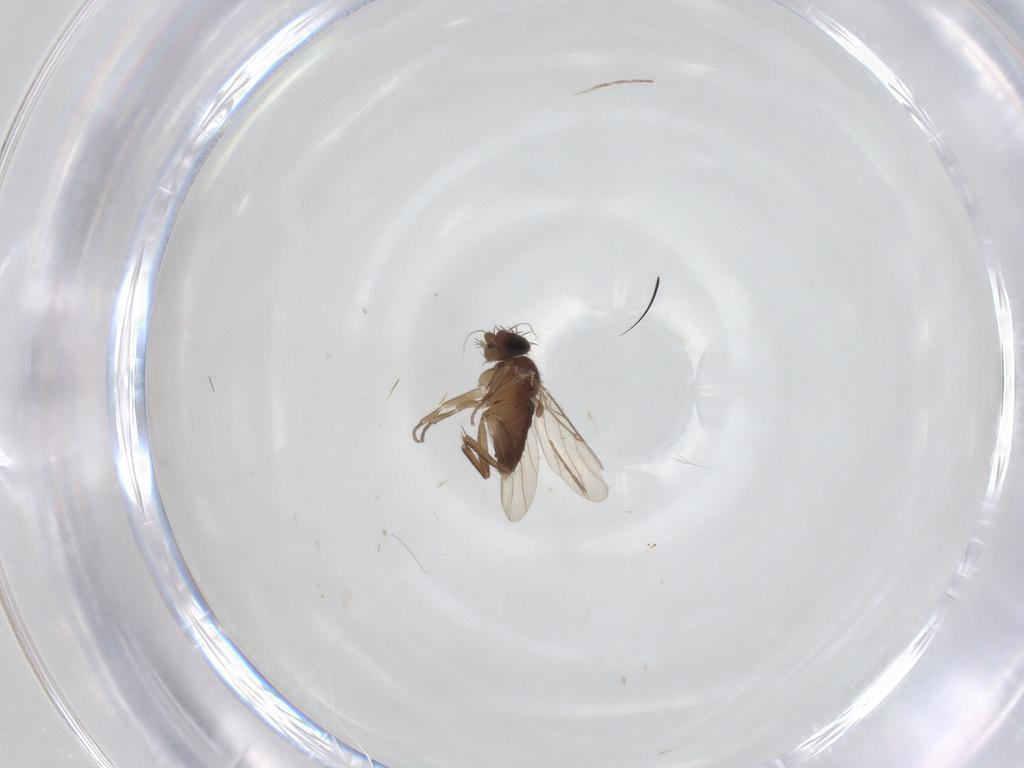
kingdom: Animalia
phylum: Arthropoda
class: Insecta
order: Diptera
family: Phoridae
